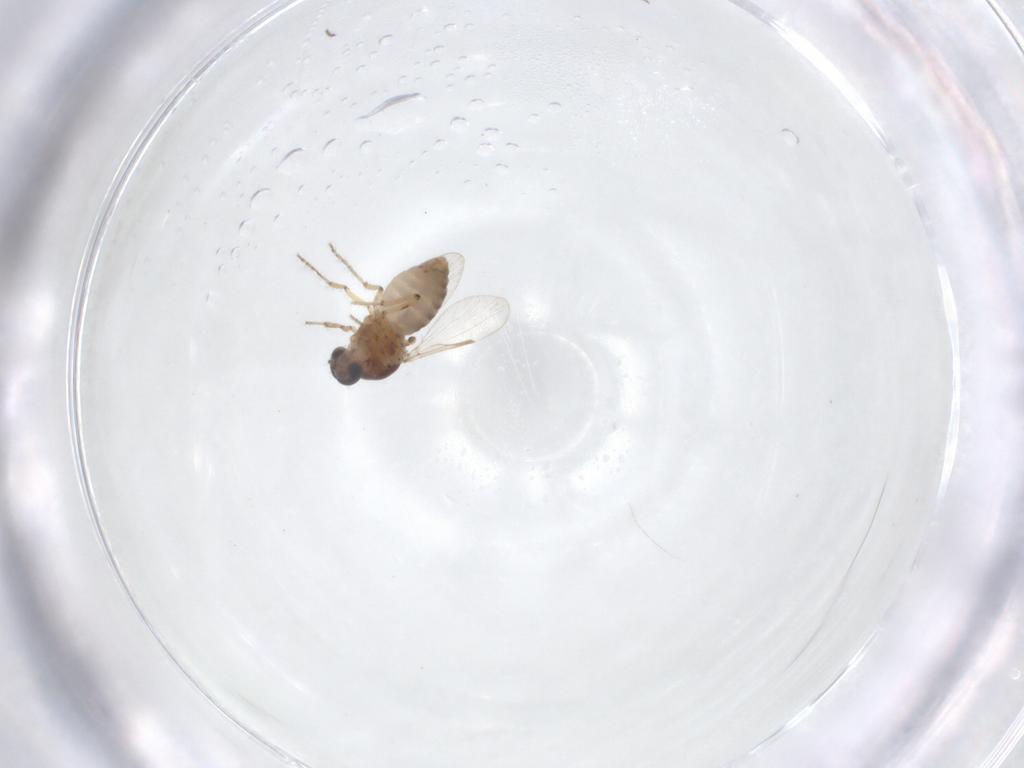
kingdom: Animalia
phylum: Arthropoda
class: Insecta
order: Diptera
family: Ceratopogonidae
